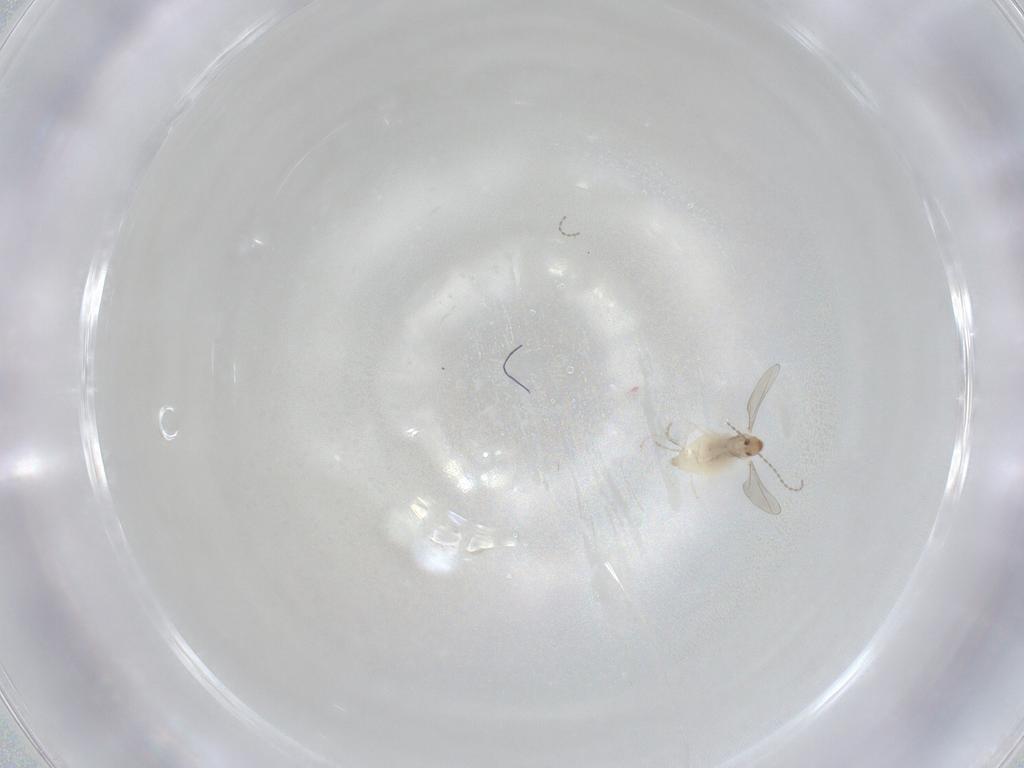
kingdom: Animalia
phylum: Arthropoda
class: Insecta
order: Diptera
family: Cecidomyiidae
